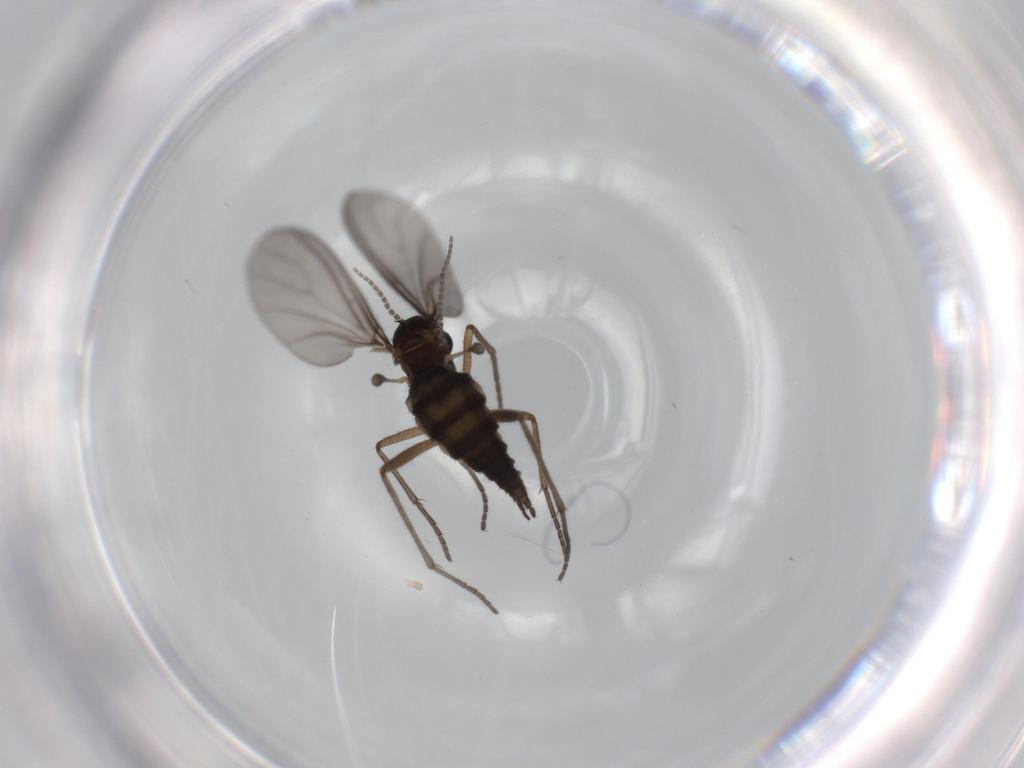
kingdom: Animalia
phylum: Arthropoda
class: Insecta
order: Diptera
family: Sciaridae
